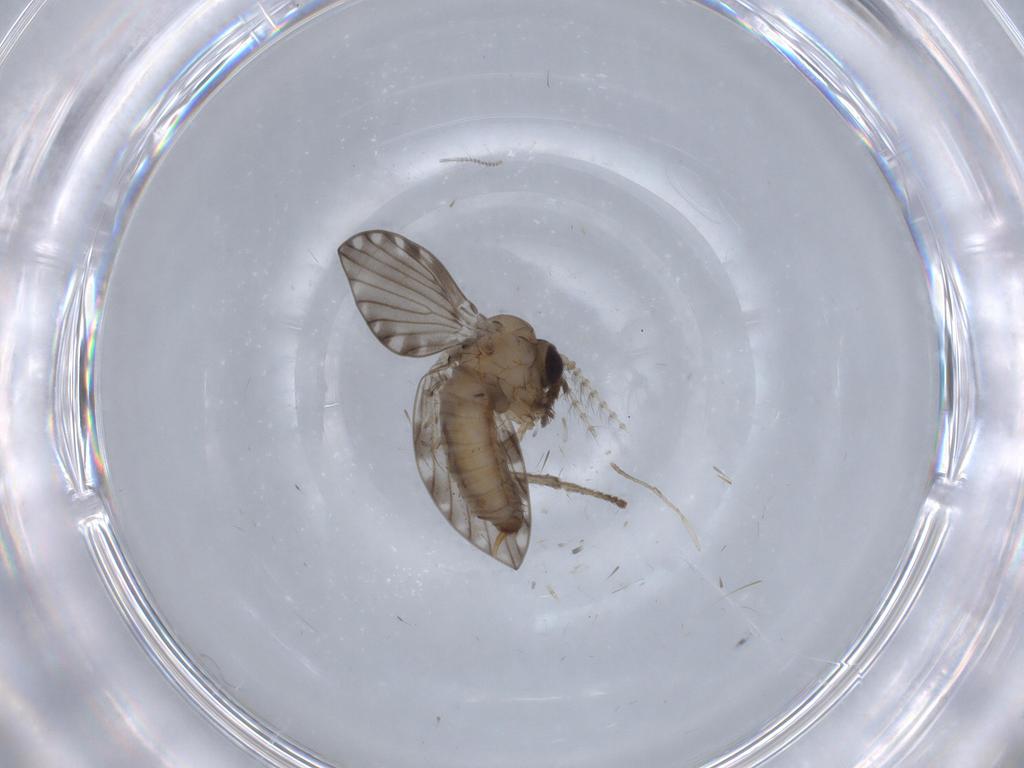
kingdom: Animalia
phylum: Arthropoda
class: Insecta
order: Diptera
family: Psychodidae
